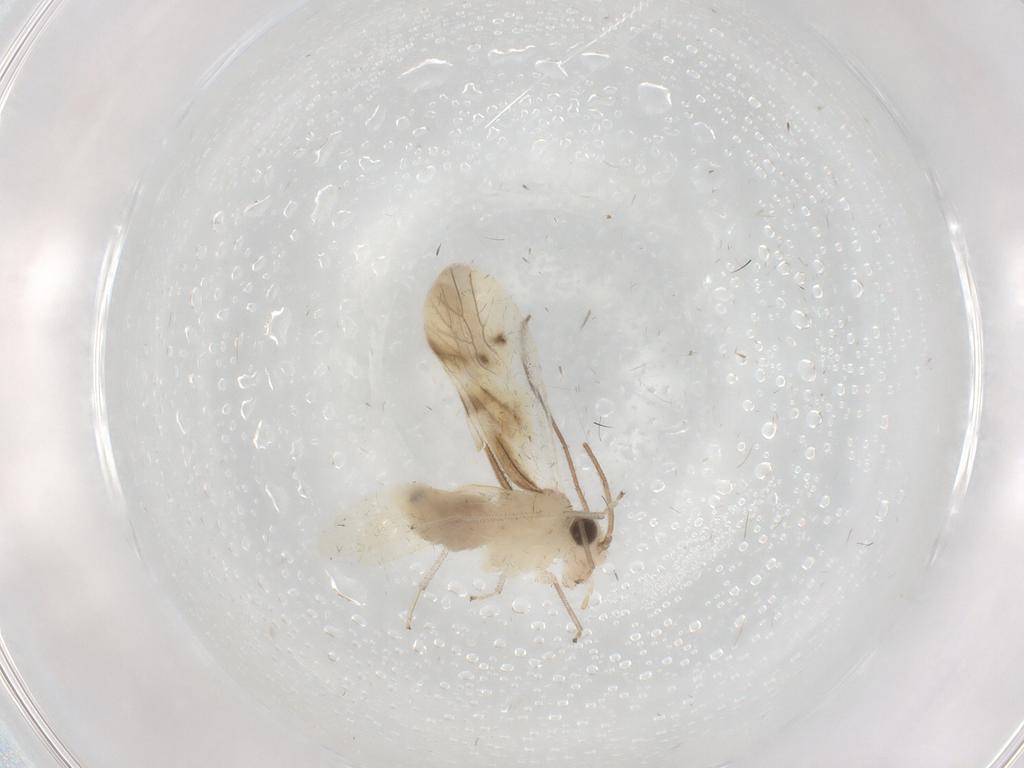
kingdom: Animalia
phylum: Arthropoda
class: Insecta
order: Psocodea
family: Caeciliusidae
